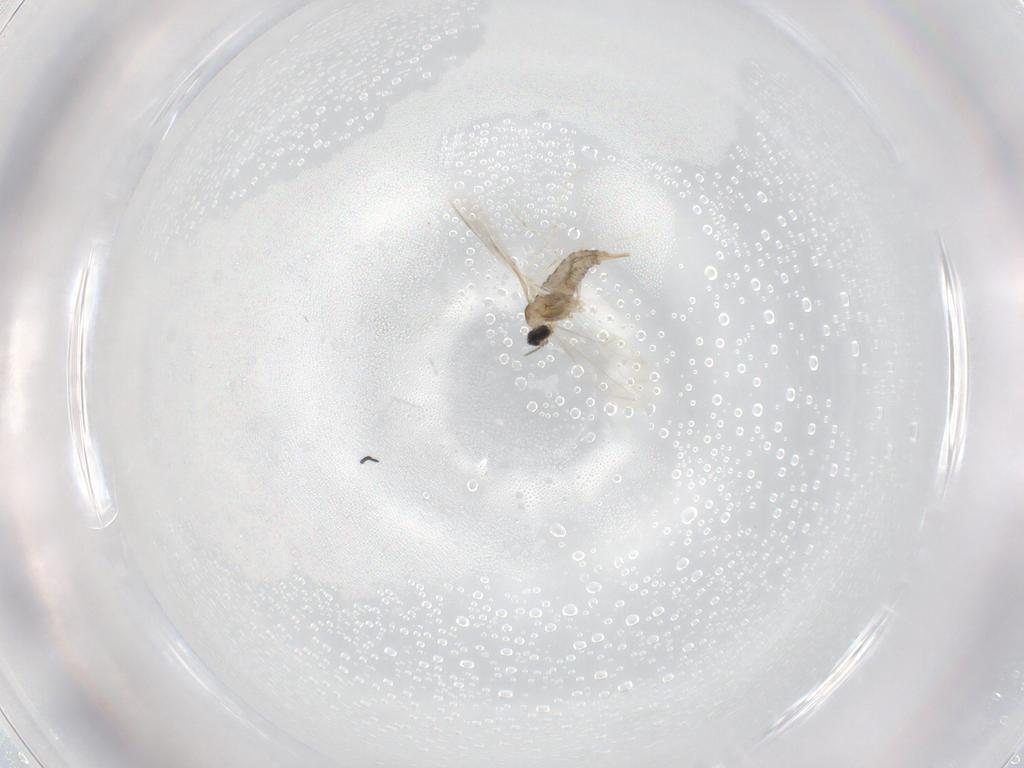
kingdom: Animalia
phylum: Arthropoda
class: Insecta
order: Diptera
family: Cecidomyiidae
